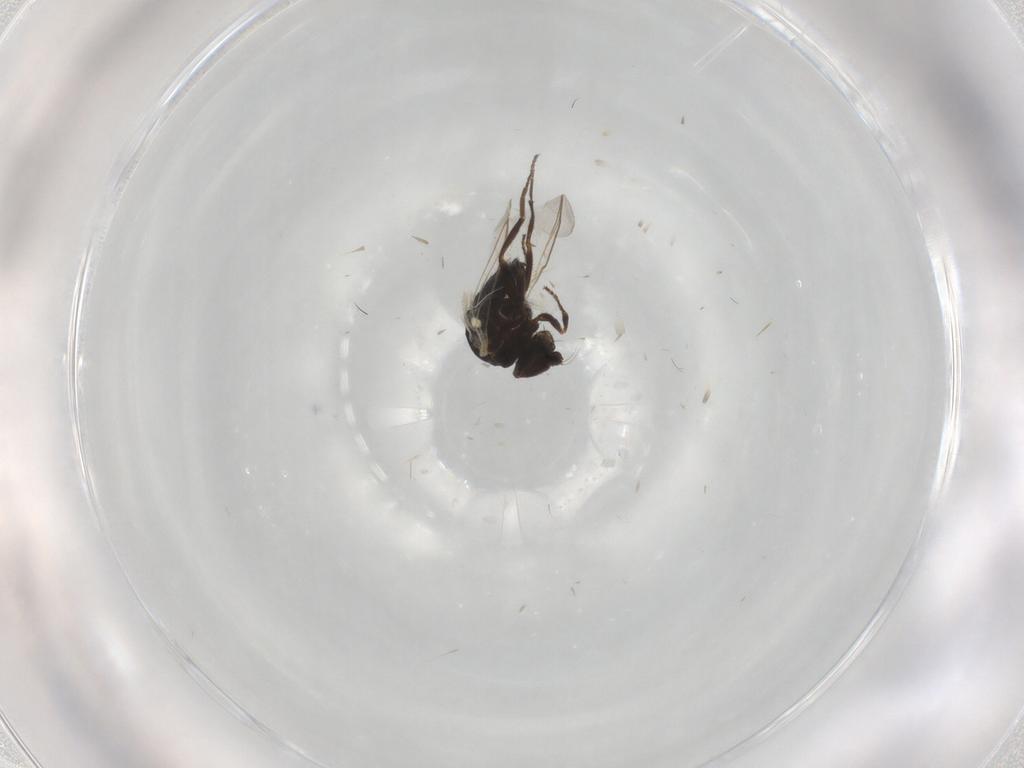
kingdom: Animalia
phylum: Arthropoda
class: Insecta
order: Diptera
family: Agromyzidae
